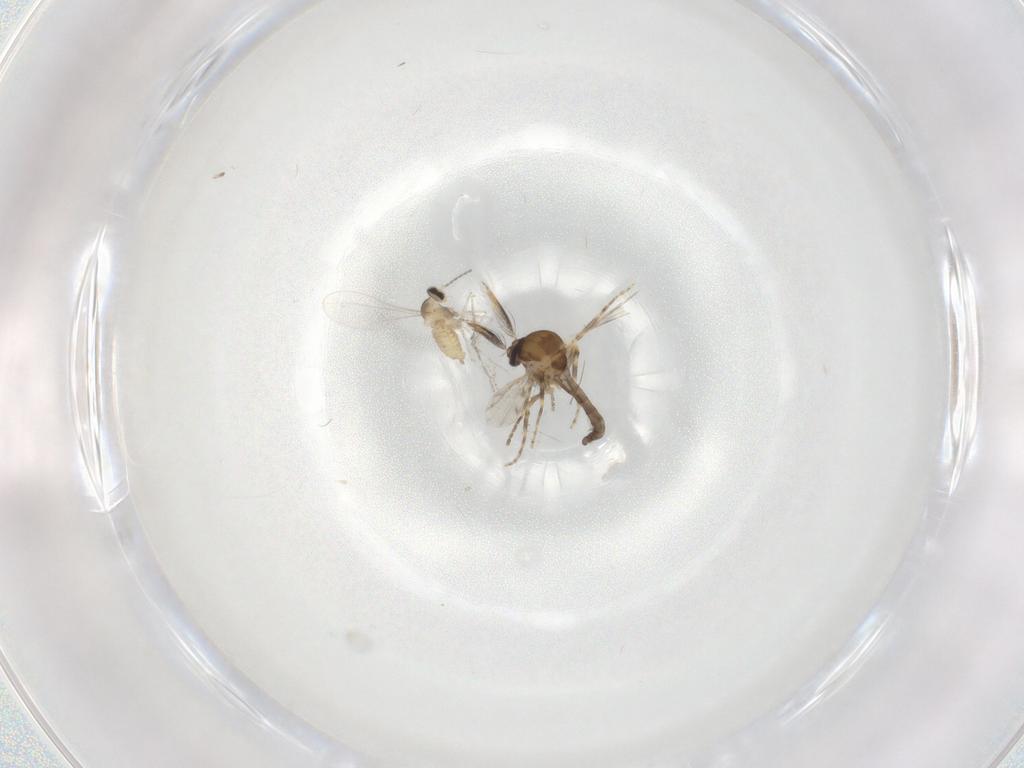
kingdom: Animalia
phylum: Arthropoda
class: Insecta
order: Diptera
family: Ceratopogonidae
